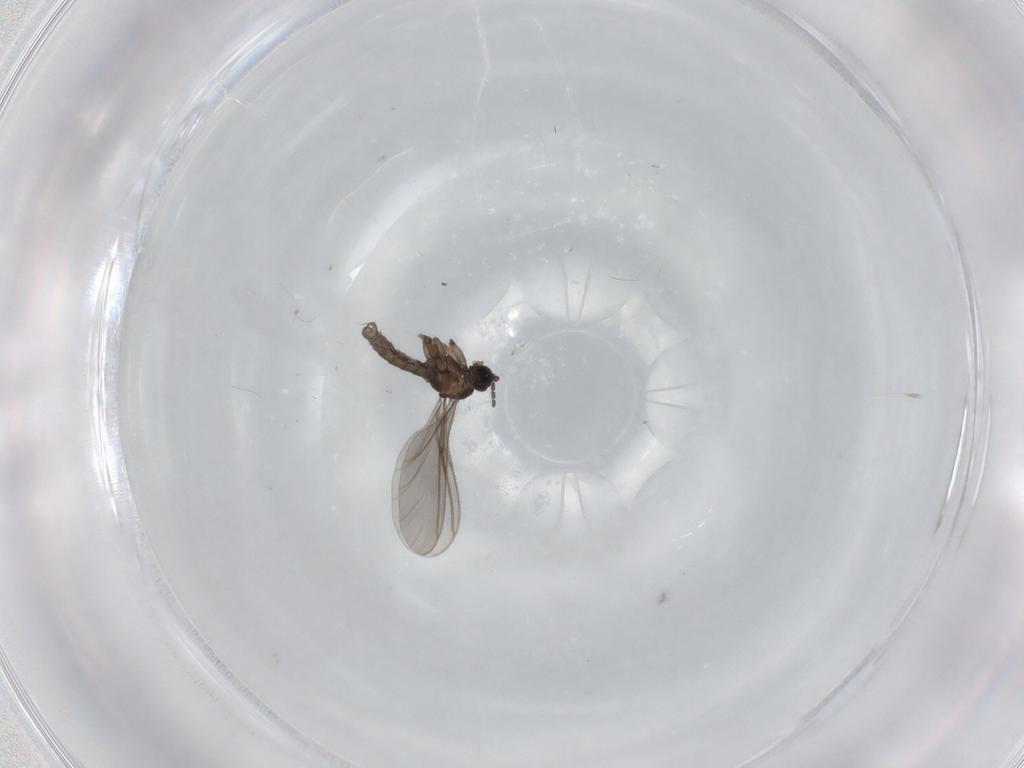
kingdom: Animalia
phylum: Arthropoda
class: Insecta
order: Diptera
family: Sciaridae
